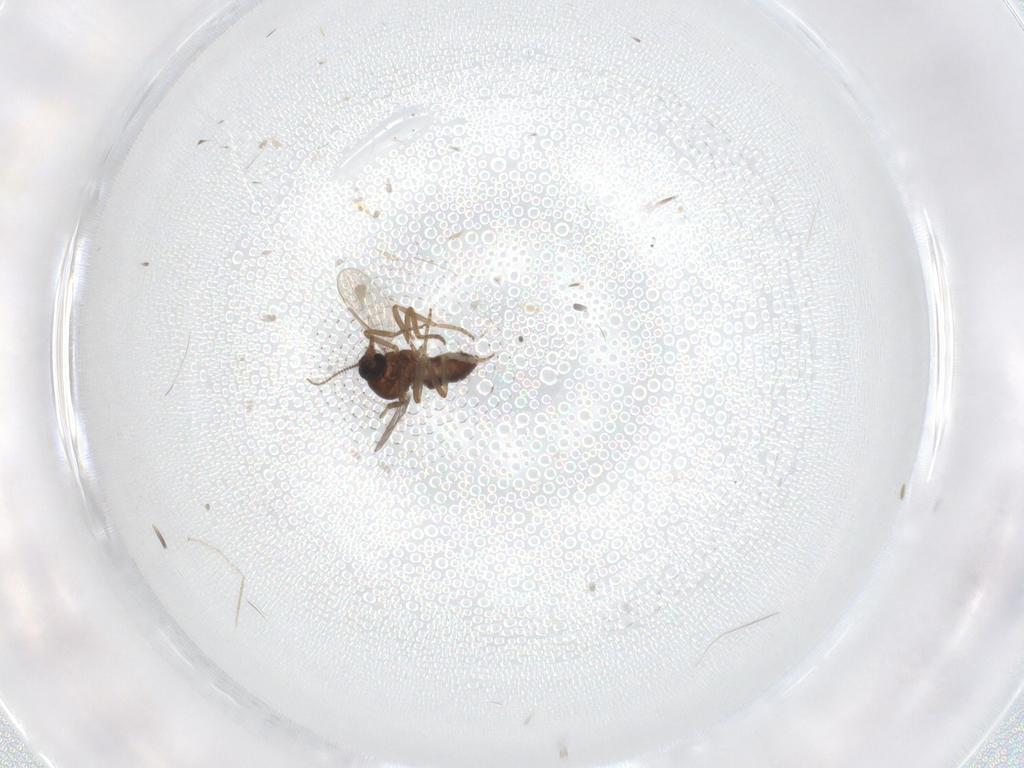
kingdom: Animalia
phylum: Arthropoda
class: Insecta
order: Diptera
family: Ceratopogonidae
